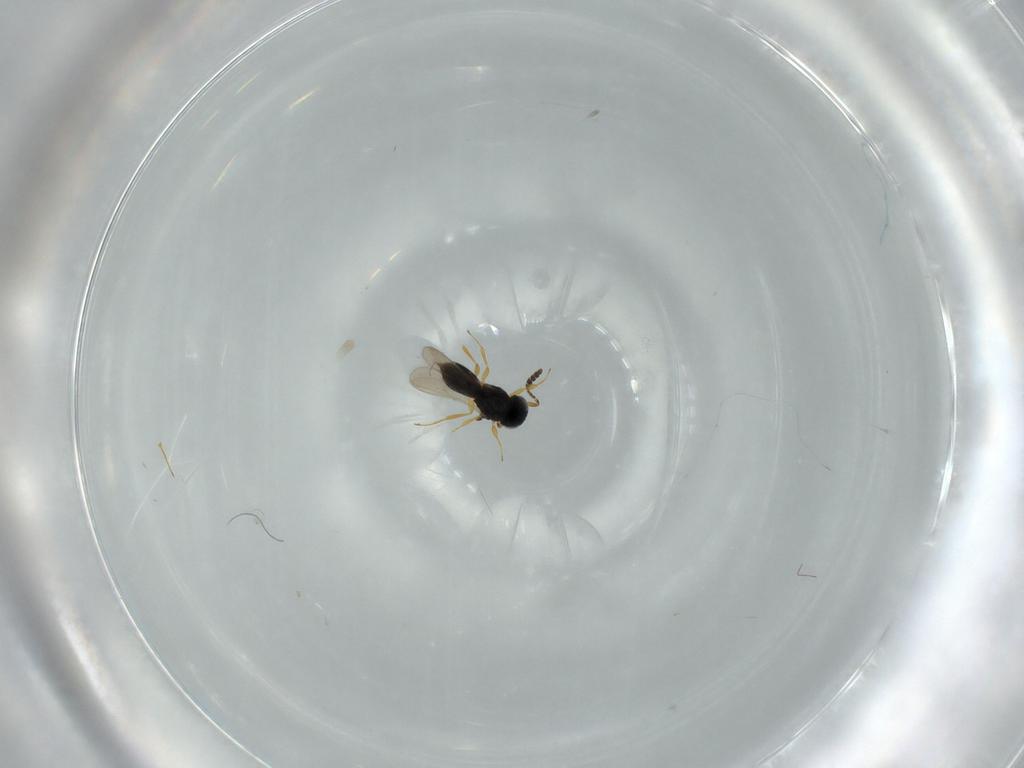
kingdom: Animalia
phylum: Arthropoda
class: Insecta
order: Hymenoptera
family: Scelionidae
